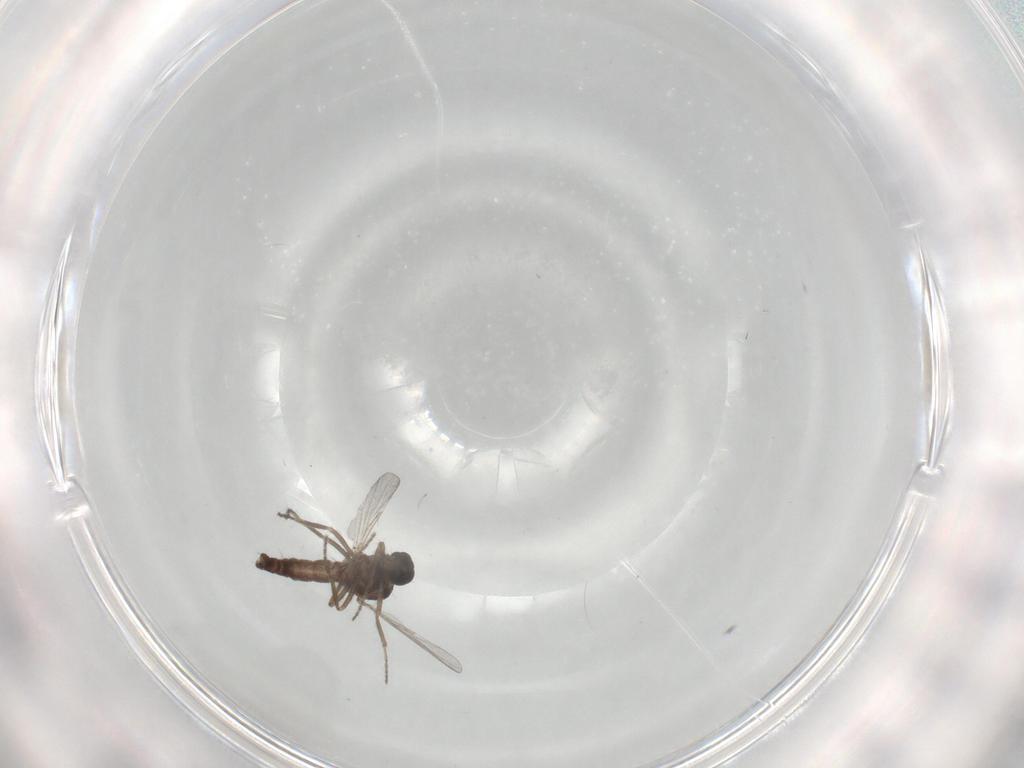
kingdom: Animalia
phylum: Arthropoda
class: Insecta
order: Diptera
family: Ceratopogonidae
